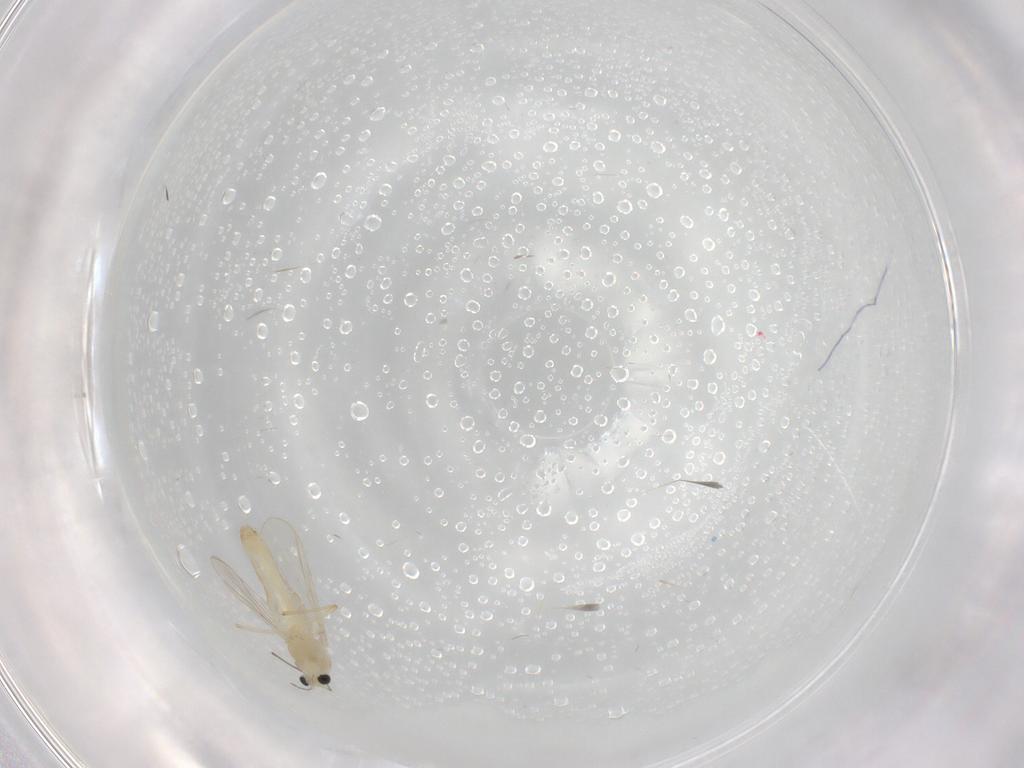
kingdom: Animalia
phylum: Arthropoda
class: Insecta
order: Diptera
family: Chironomidae
